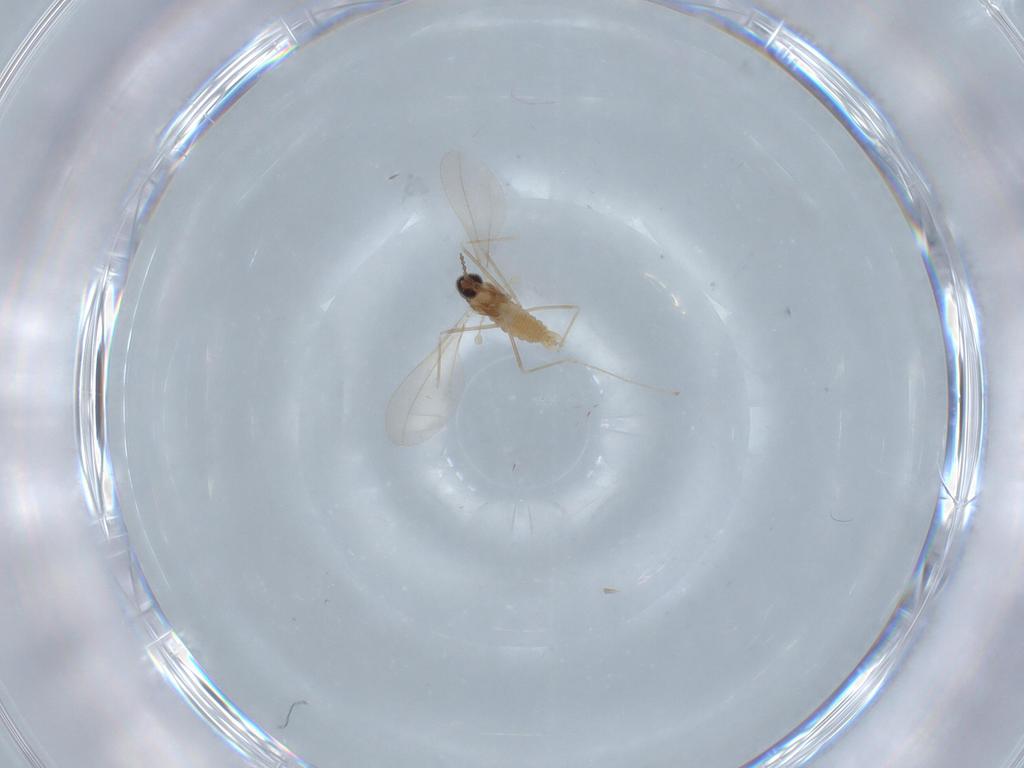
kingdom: Animalia
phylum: Arthropoda
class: Insecta
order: Diptera
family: Cecidomyiidae
